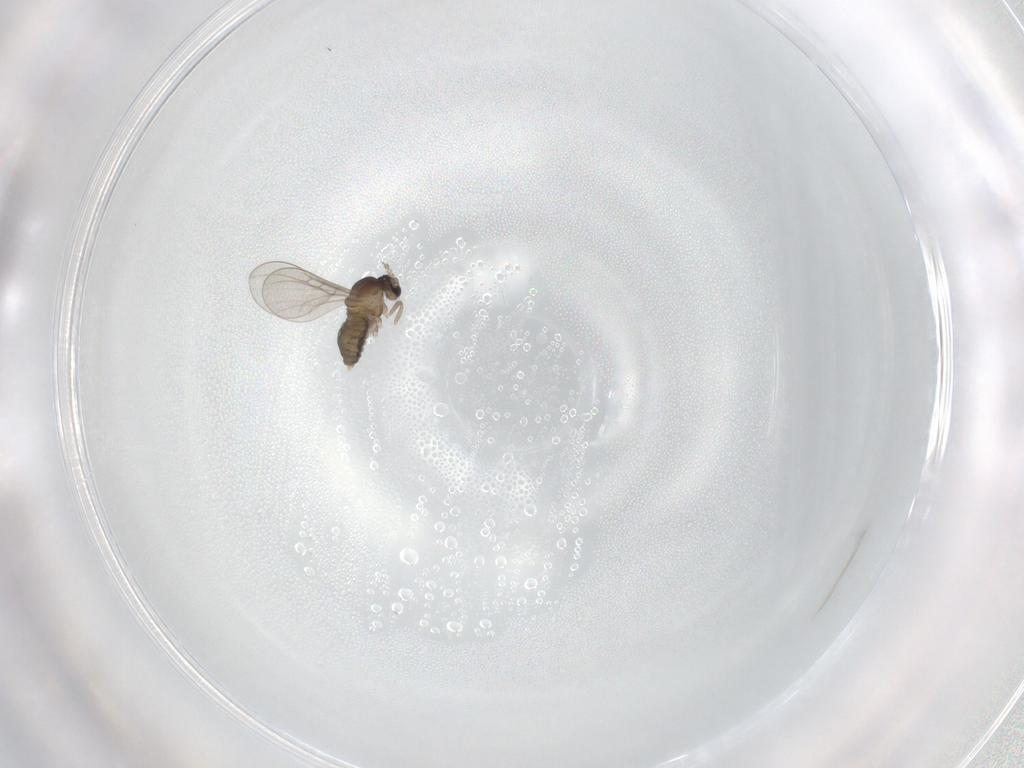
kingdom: Animalia
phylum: Arthropoda
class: Insecta
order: Diptera
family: Cecidomyiidae
